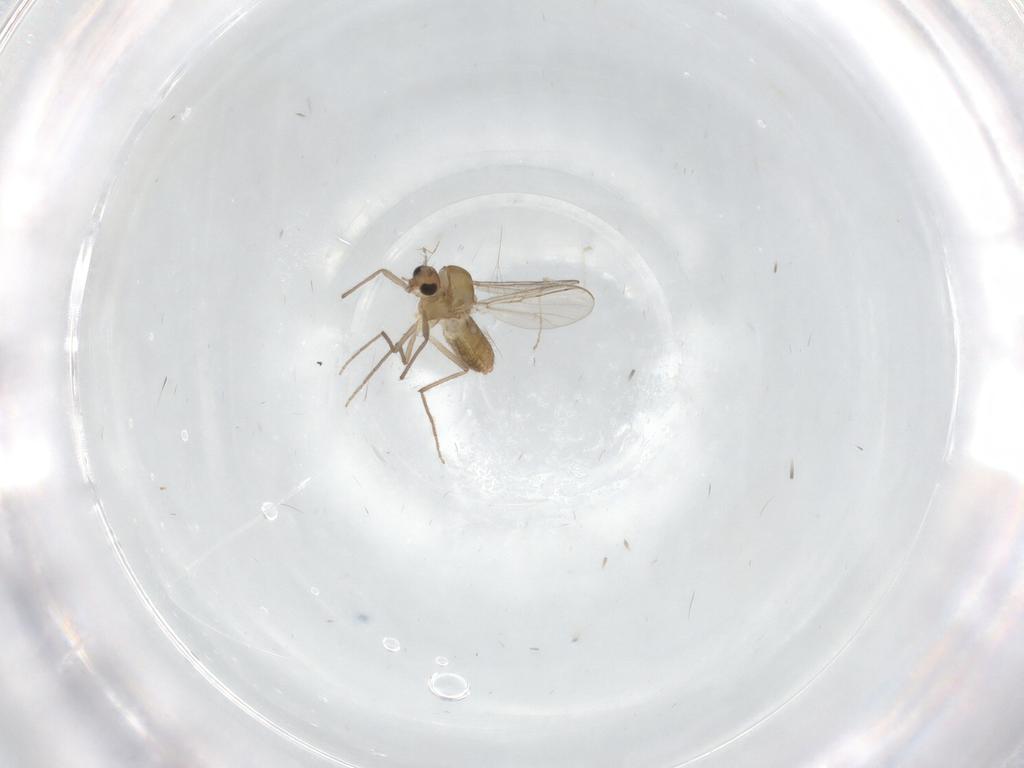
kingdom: Animalia
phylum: Arthropoda
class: Insecta
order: Diptera
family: Chironomidae
